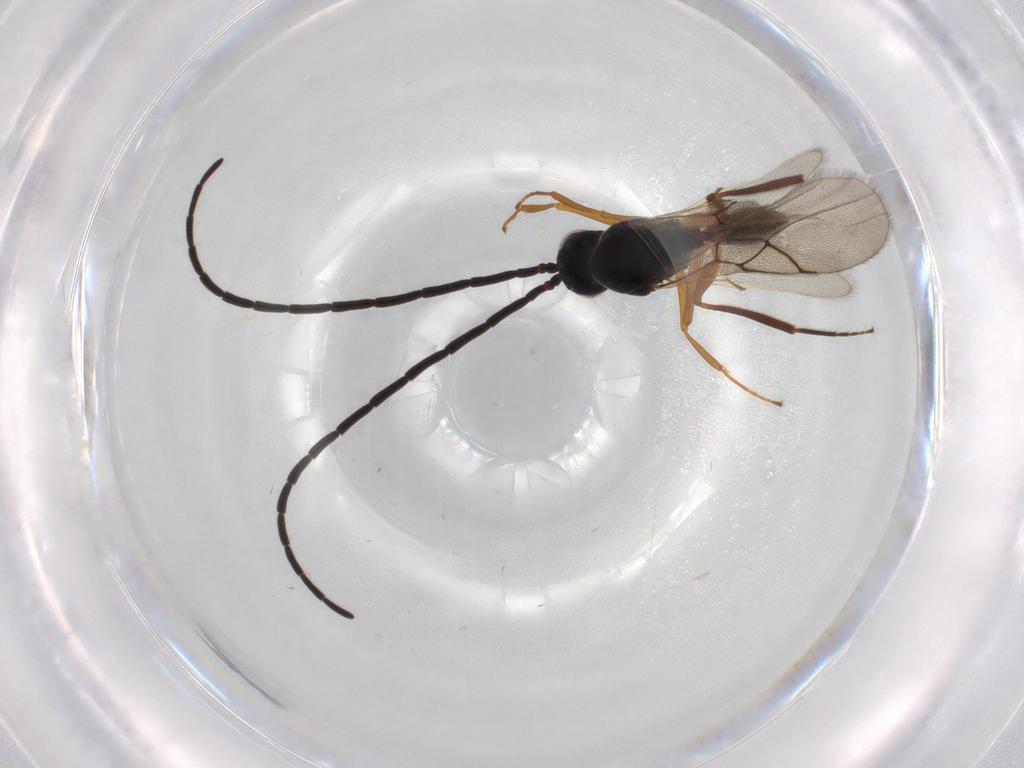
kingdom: Animalia
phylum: Arthropoda
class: Insecta
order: Hymenoptera
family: Figitidae
